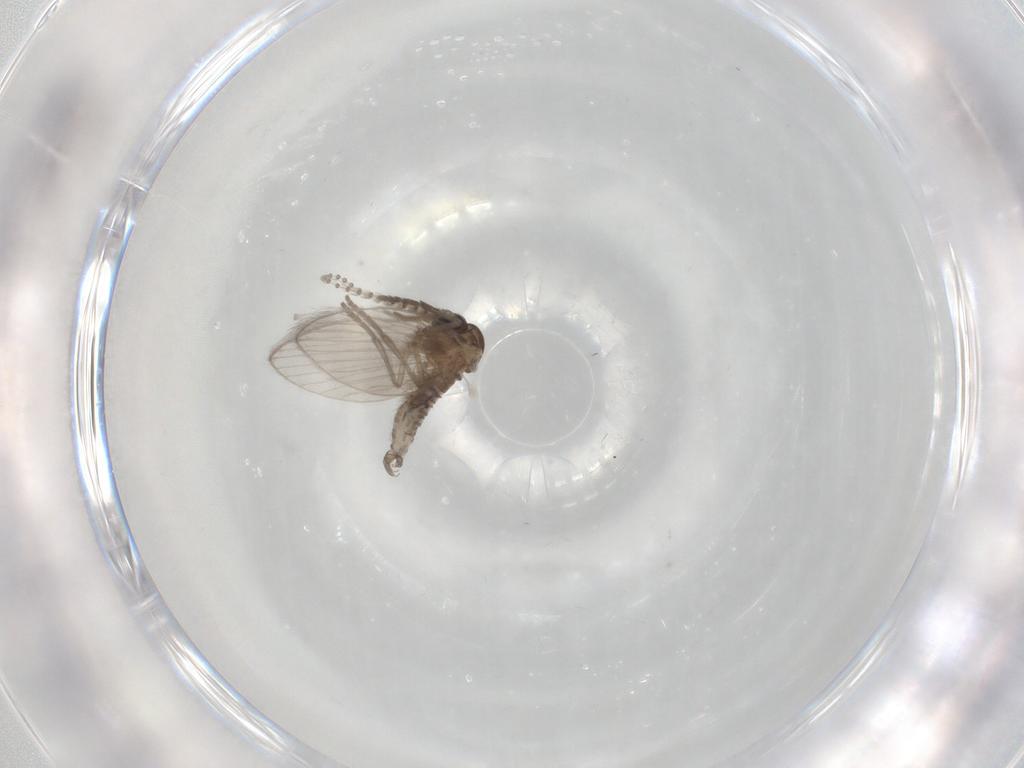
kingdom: Animalia
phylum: Arthropoda
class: Insecta
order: Diptera
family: Psychodidae
